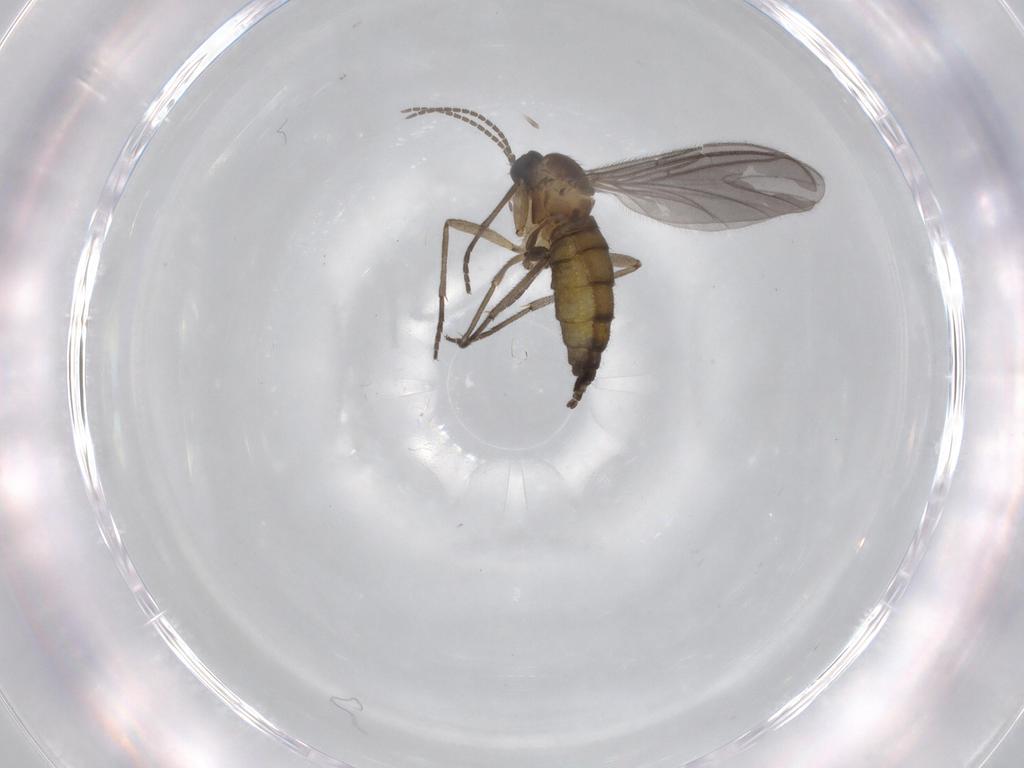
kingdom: Animalia
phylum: Arthropoda
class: Insecta
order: Diptera
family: Sciaridae
